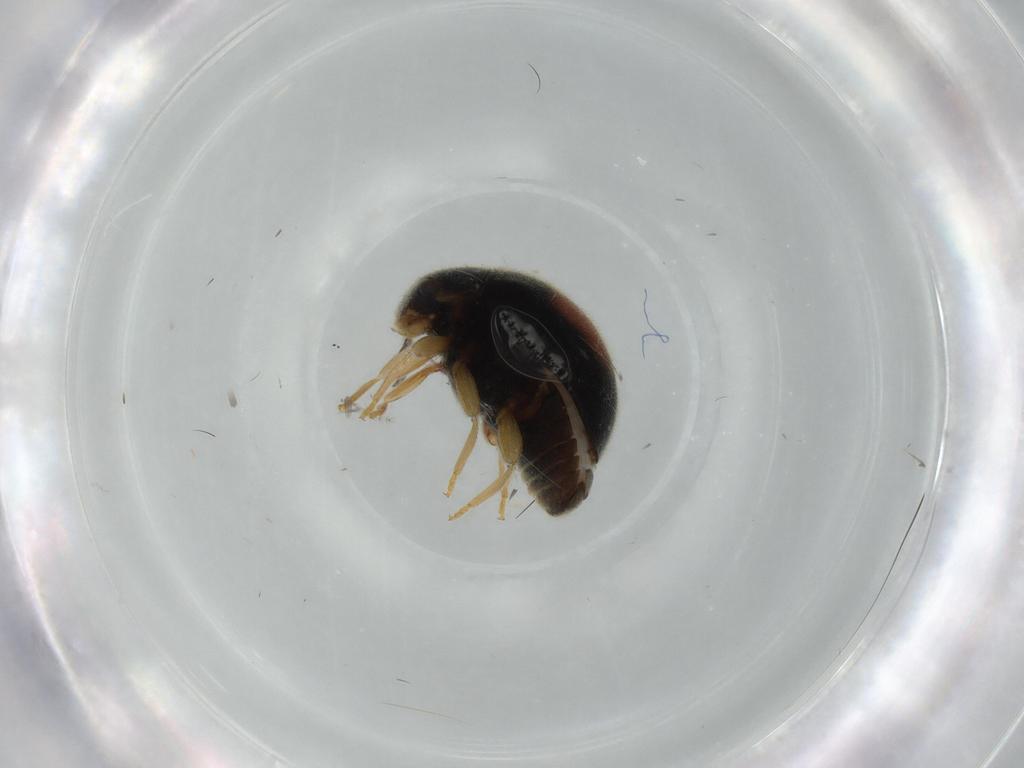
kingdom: Animalia
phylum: Arthropoda
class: Insecta
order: Coleoptera
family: Coccinellidae
